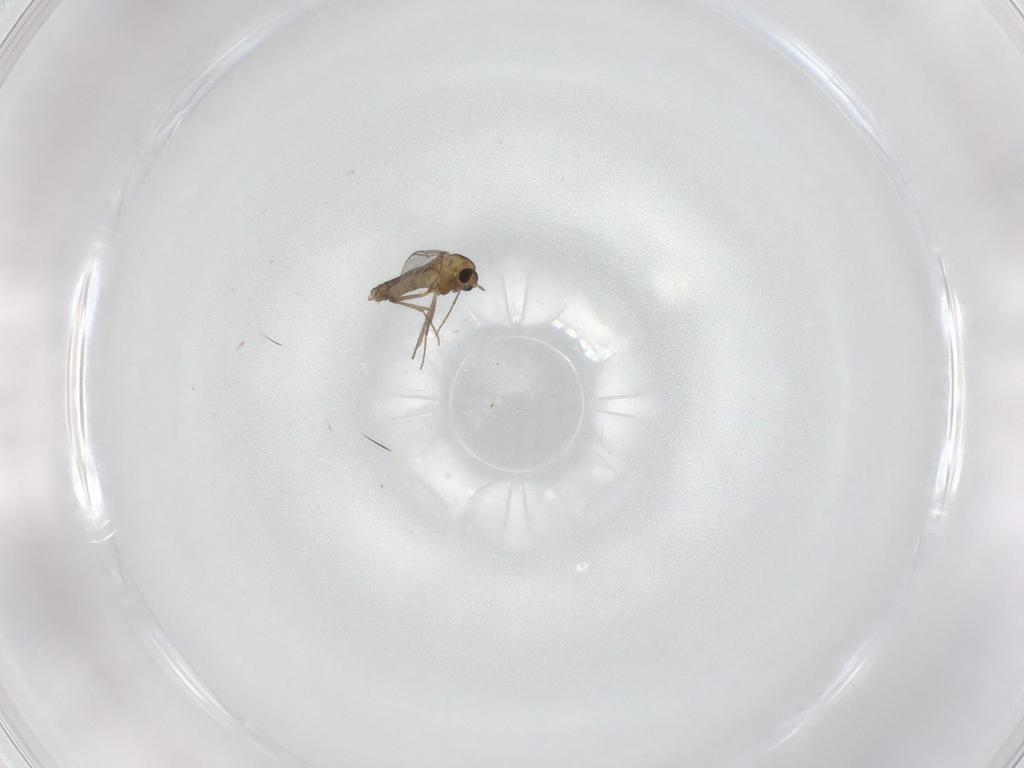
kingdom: Animalia
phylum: Arthropoda
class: Insecta
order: Diptera
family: Chironomidae
